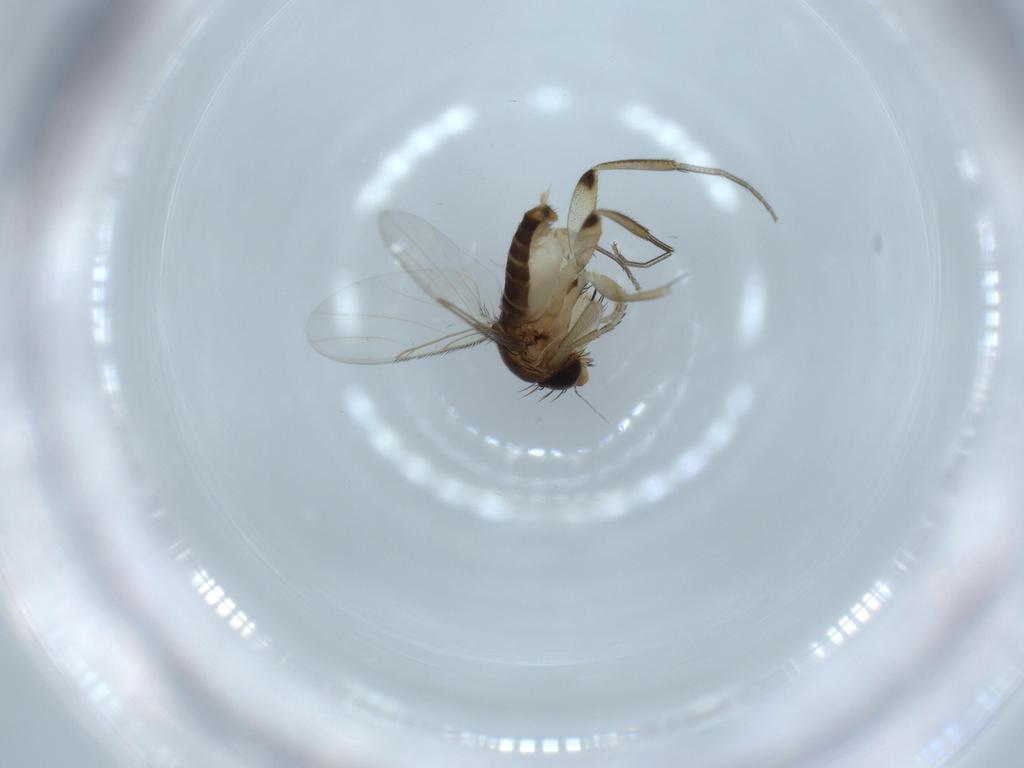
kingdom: Animalia
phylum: Arthropoda
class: Insecta
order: Diptera
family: Phoridae
